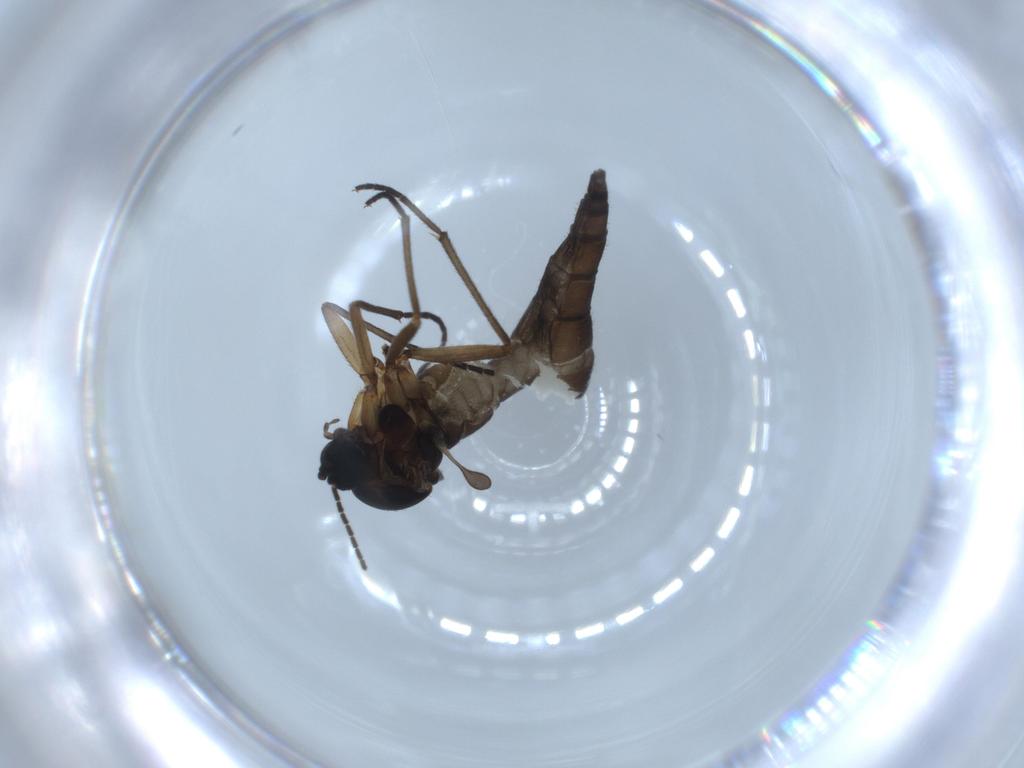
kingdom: Animalia
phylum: Arthropoda
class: Insecta
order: Diptera
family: Sciaridae
